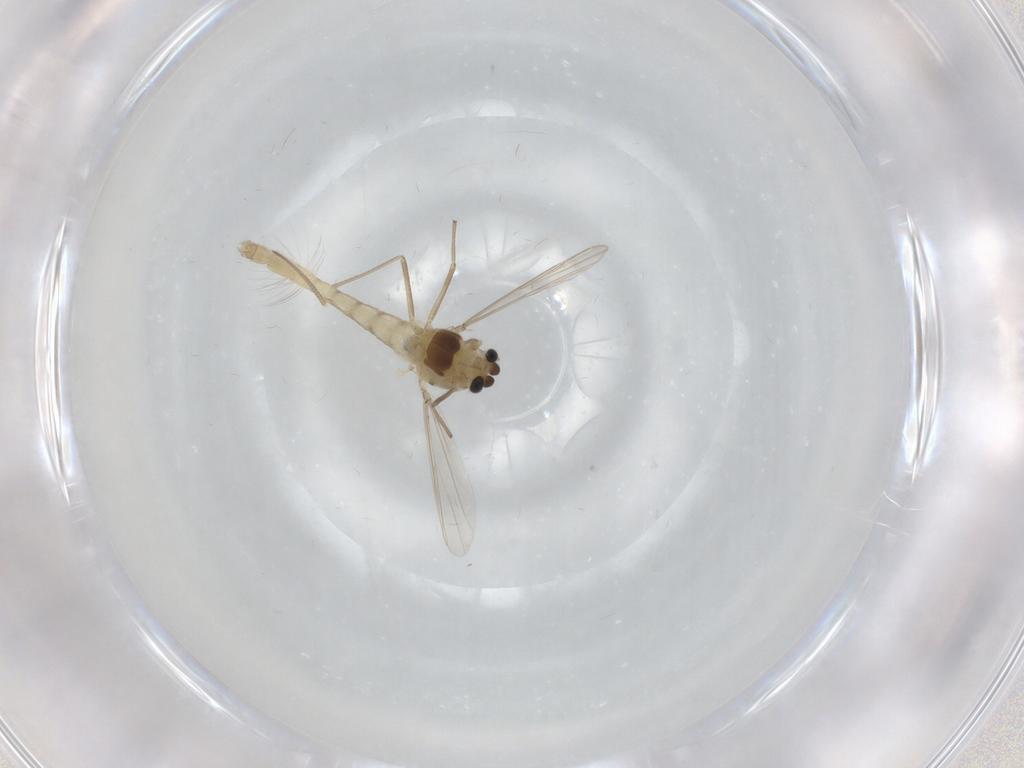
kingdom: Animalia
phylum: Arthropoda
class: Insecta
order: Diptera
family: Chironomidae
